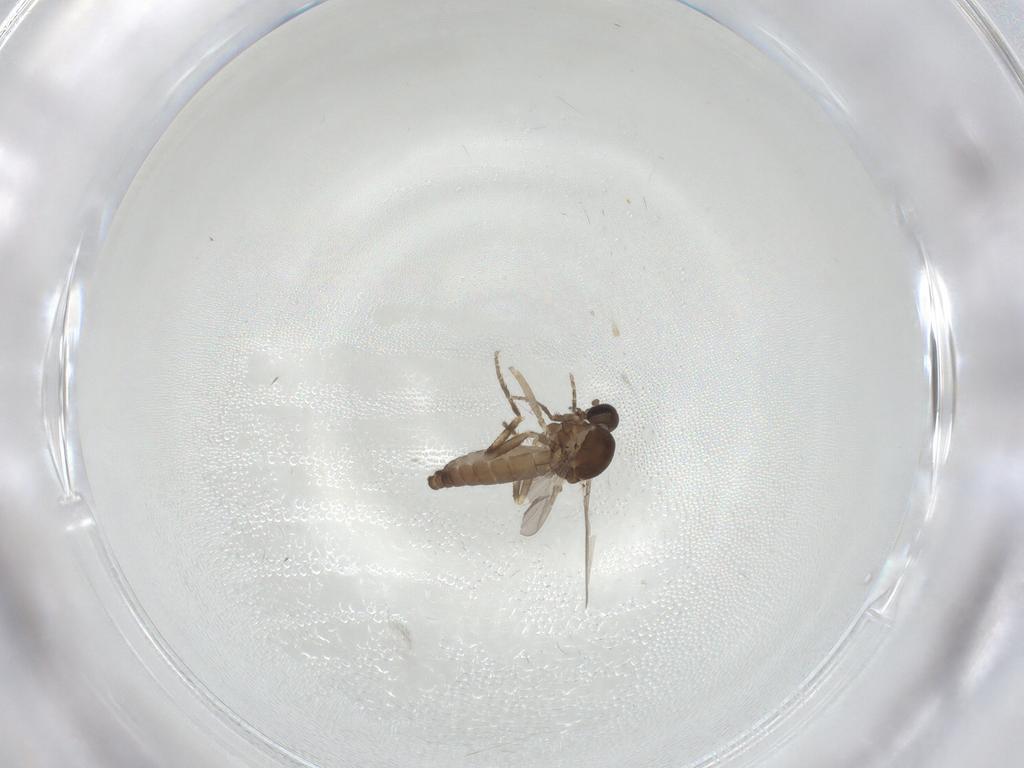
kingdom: Animalia
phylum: Arthropoda
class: Insecta
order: Diptera
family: Ceratopogonidae
